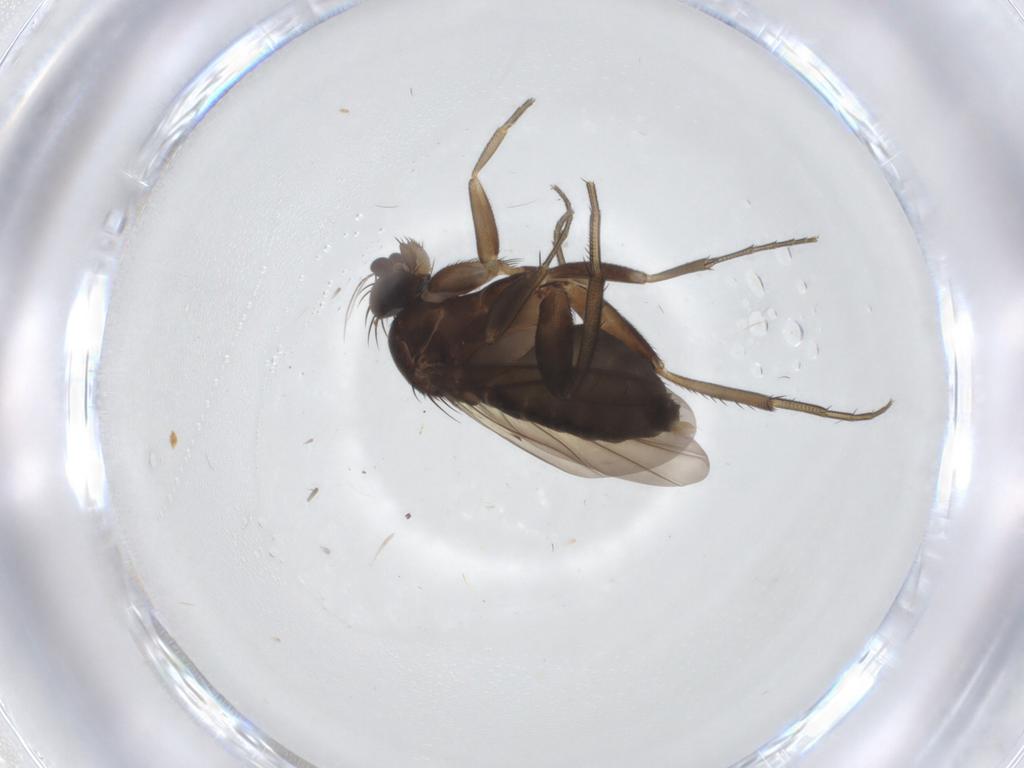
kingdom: Animalia
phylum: Arthropoda
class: Insecta
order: Diptera
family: Phoridae
